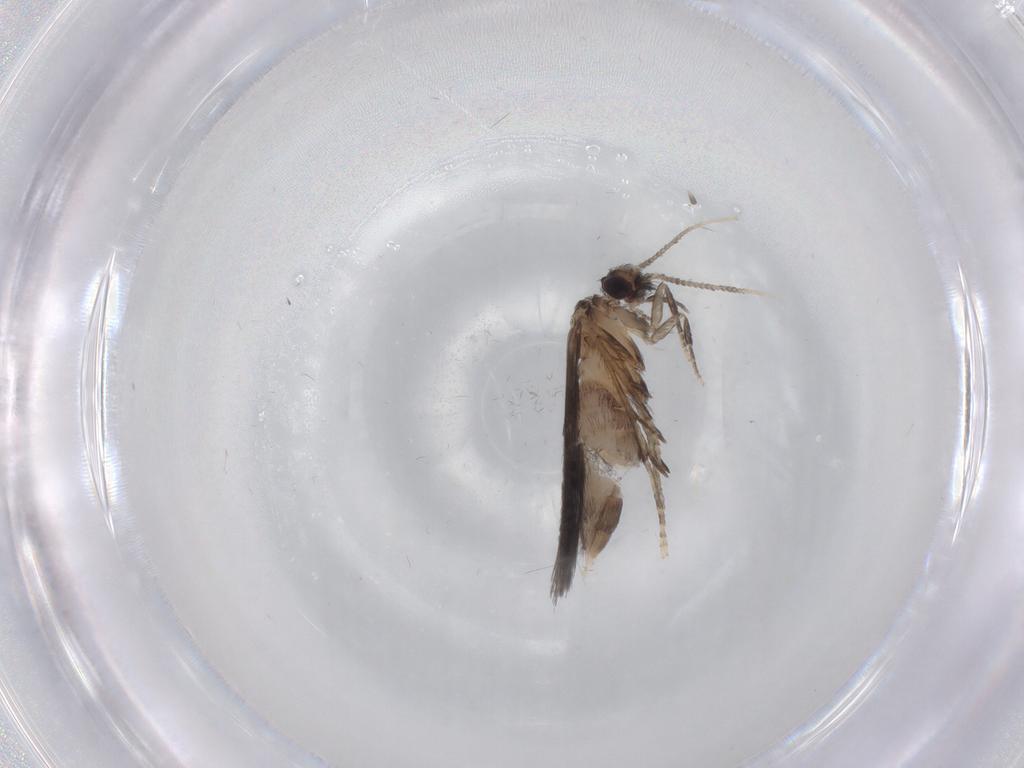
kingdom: Animalia
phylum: Arthropoda
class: Insecta
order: Trichoptera
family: Hydroptilidae
